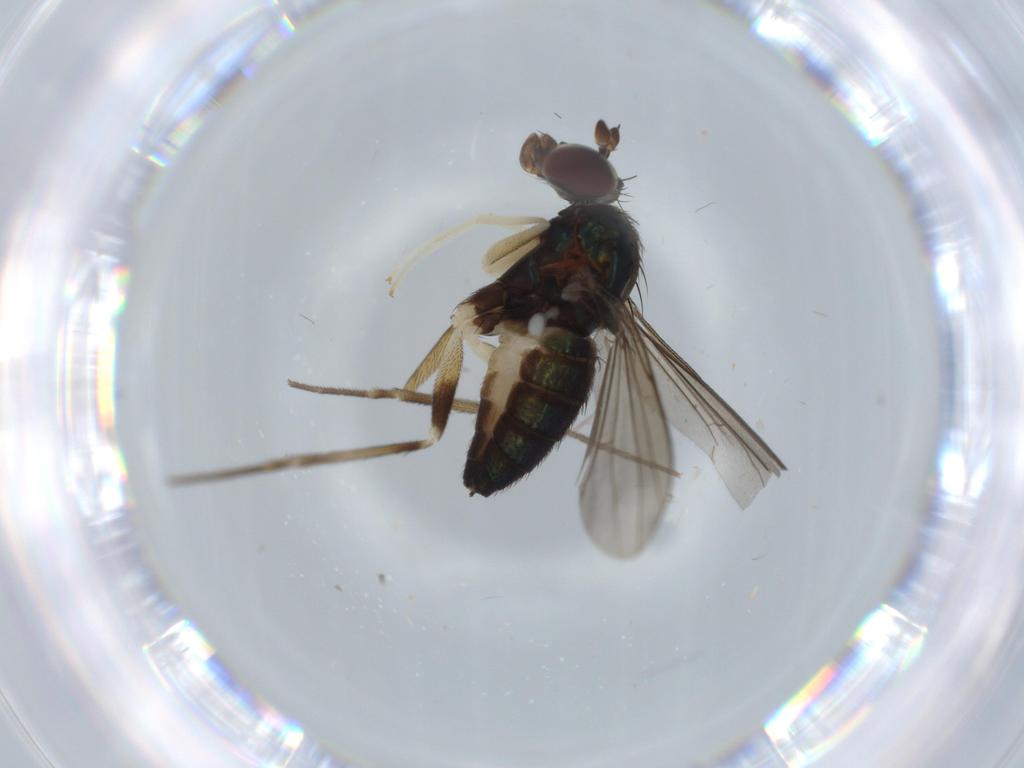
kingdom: Animalia
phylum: Arthropoda
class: Insecta
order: Diptera
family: Dolichopodidae
